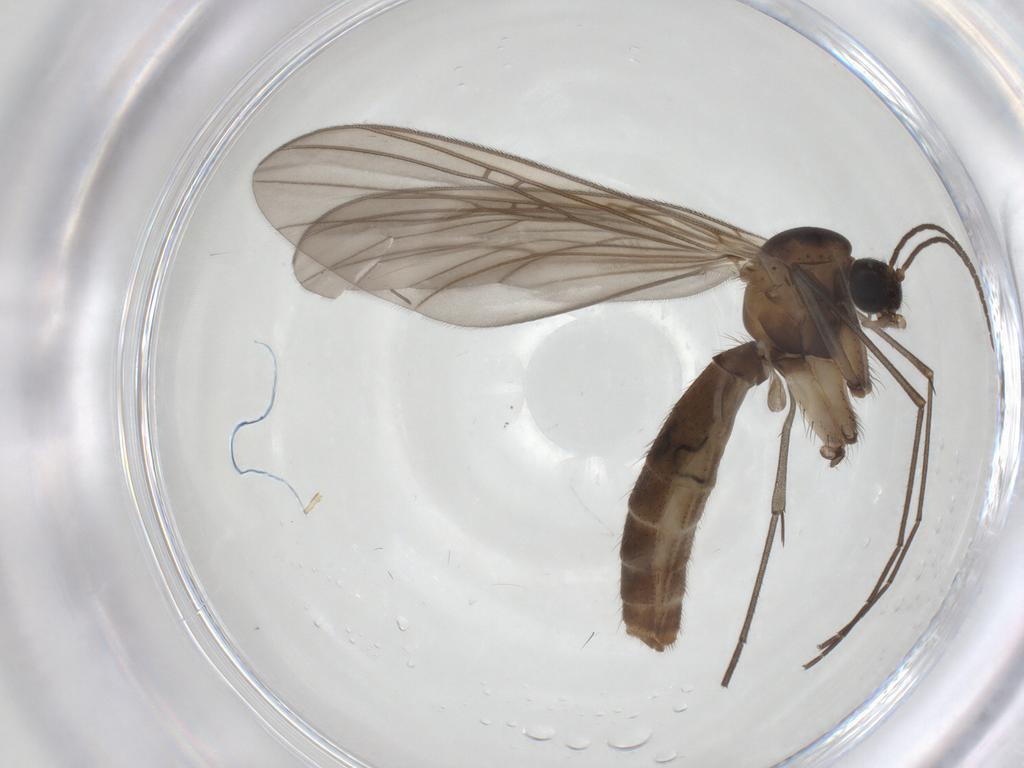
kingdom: Animalia
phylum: Arthropoda
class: Insecta
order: Diptera
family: Mycetophilidae
